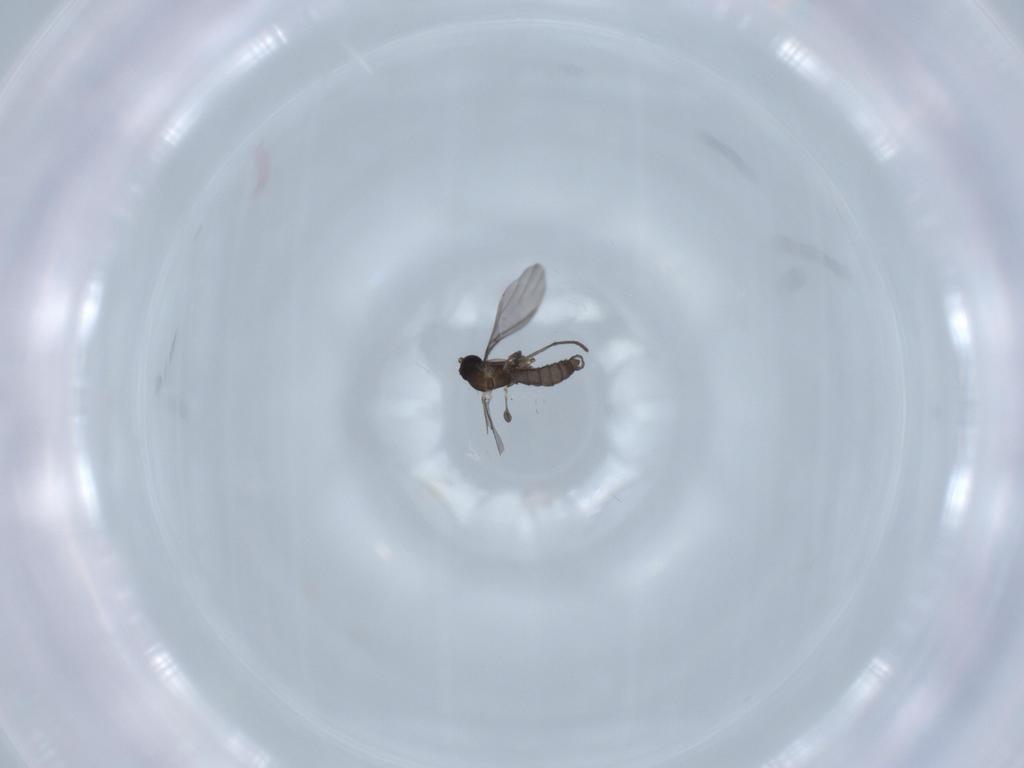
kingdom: Animalia
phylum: Arthropoda
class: Insecta
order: Diptera
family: Sciaridae
